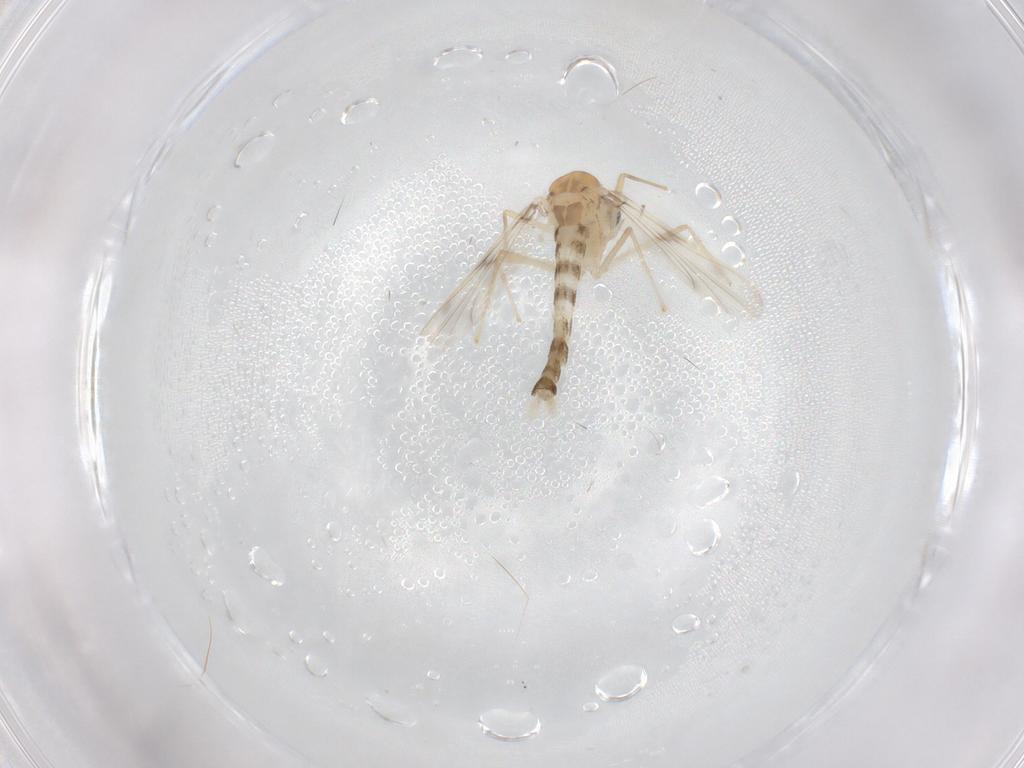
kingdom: Animalia
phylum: Arthropoda
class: Insecta
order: Diptera
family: Chironomidae
